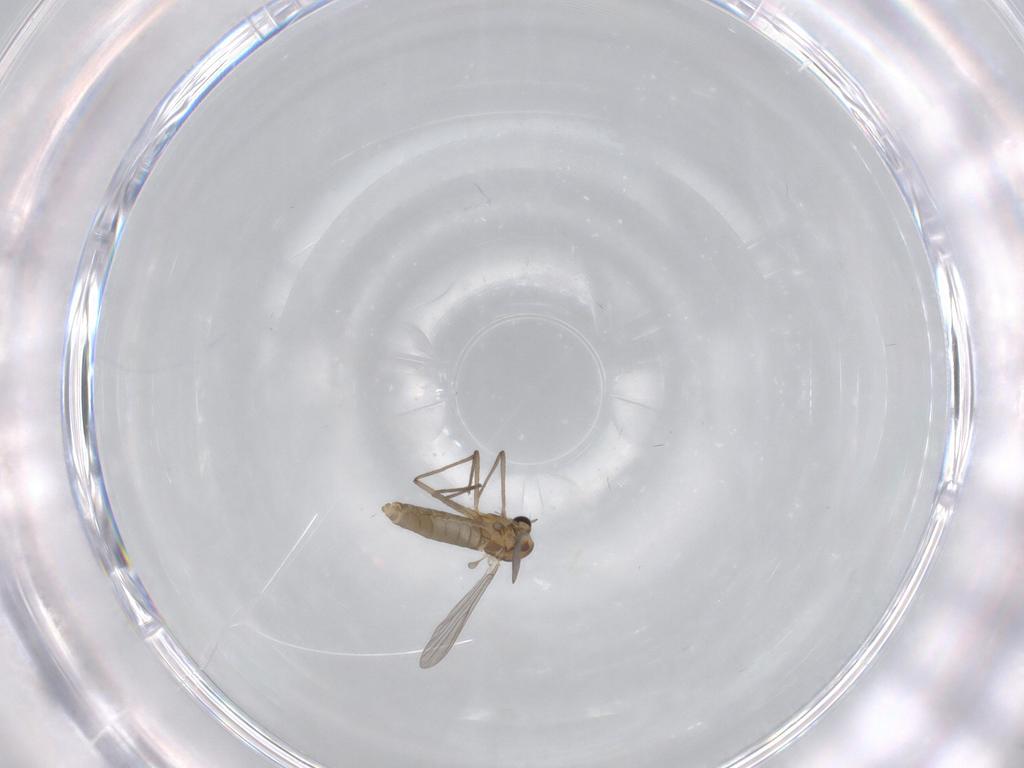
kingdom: Animalia
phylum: Arthropoda
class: Insecta
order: Diptera
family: Chironomidae
